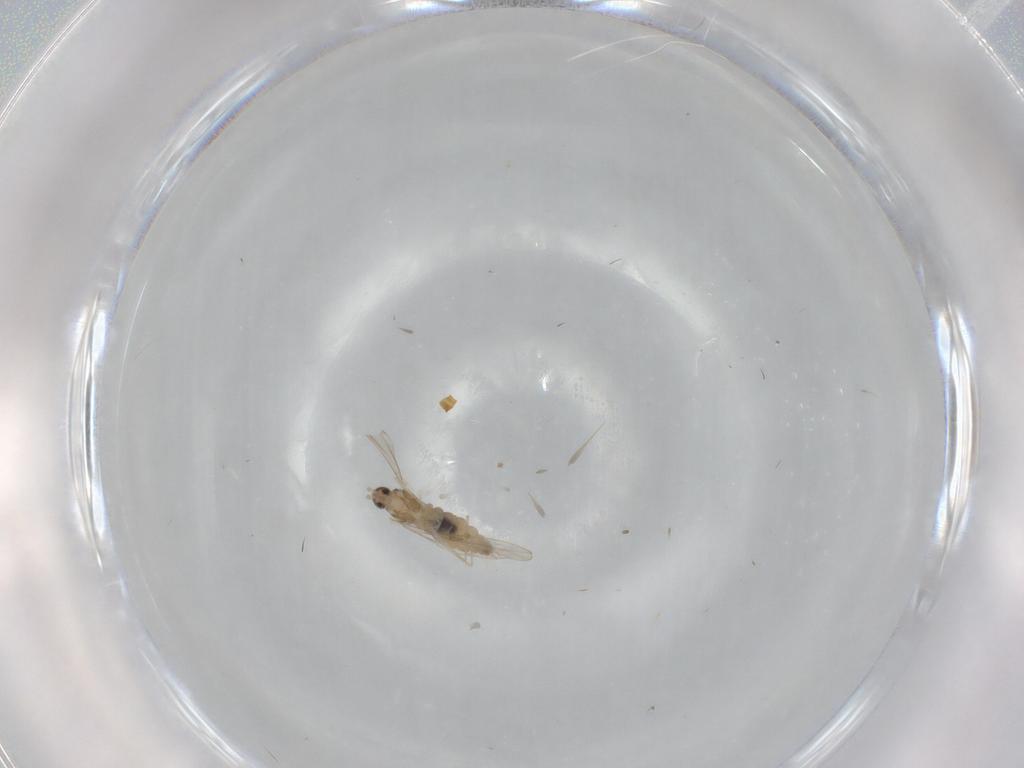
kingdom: Animalia
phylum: Arthropoda
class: Insecta
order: Diptera
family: Cecidomyiidae
